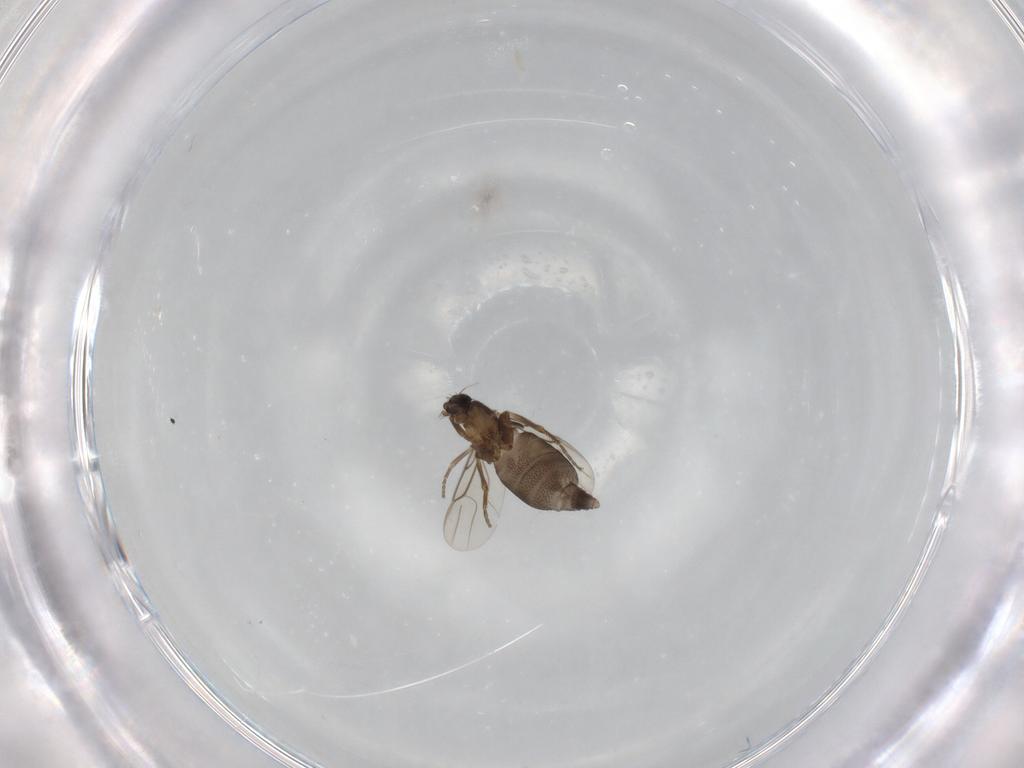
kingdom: Animalia
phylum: Arthropoda
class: Insecta
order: Diptera
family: Phoridae
